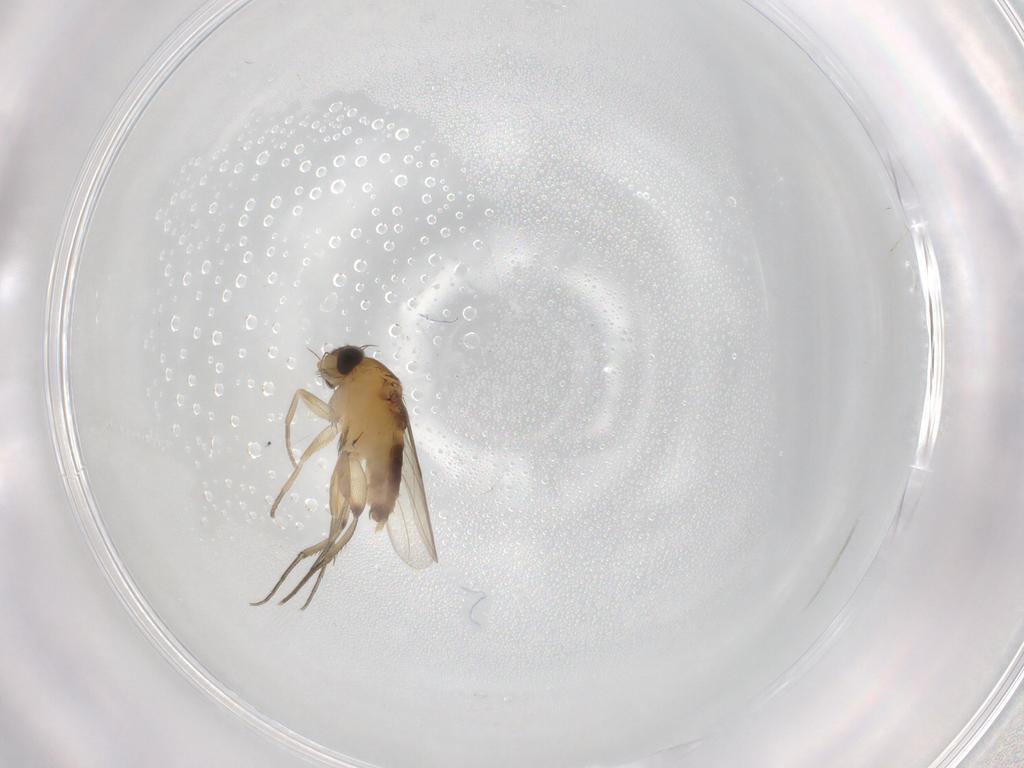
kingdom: Animalia
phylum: Arthropoda
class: Insecta
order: Diptera
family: Phoridae
